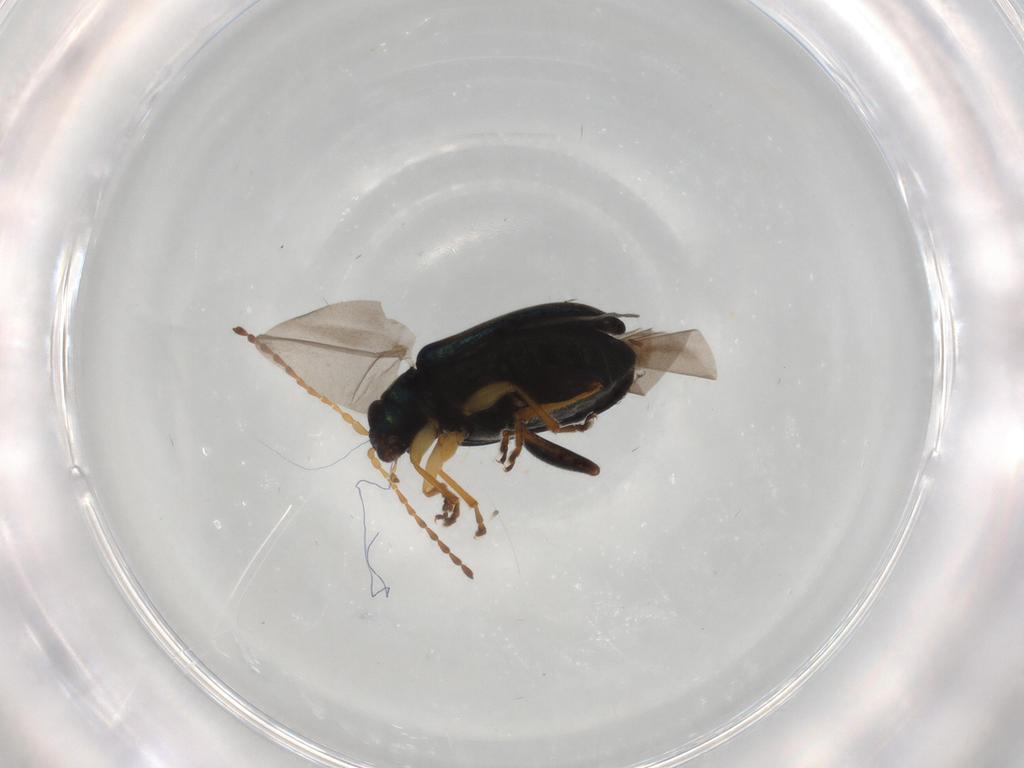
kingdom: Animalia
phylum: Arthropoda
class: Insecta
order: Coleoptera
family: Chrysomelidae
